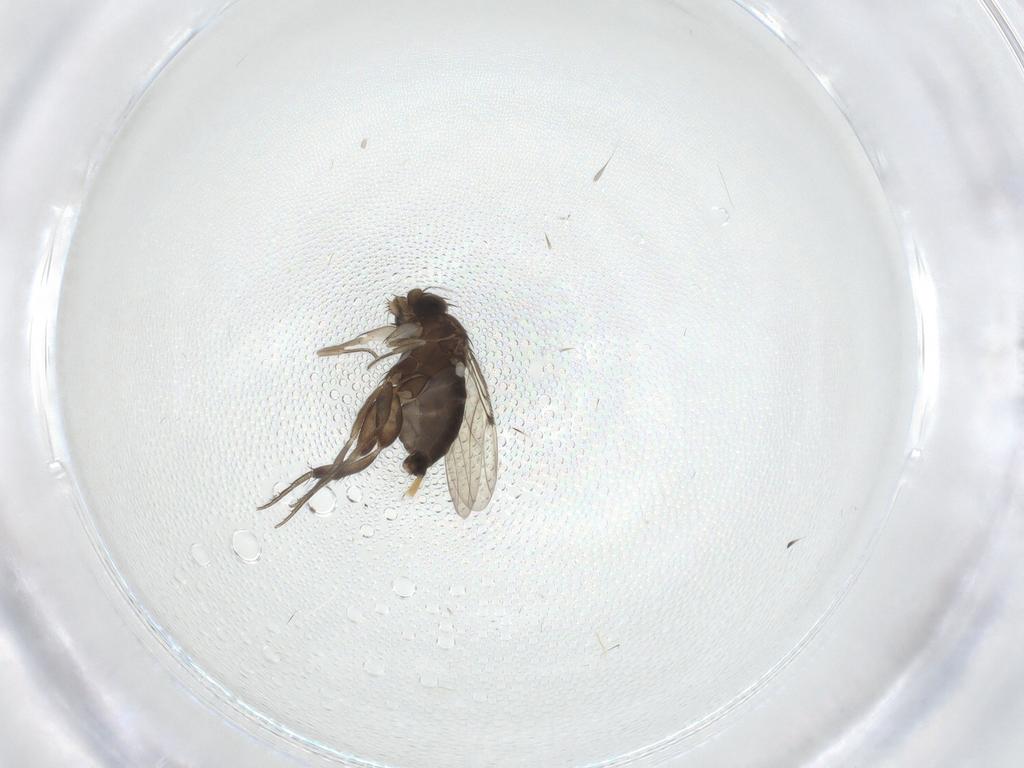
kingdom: Animalia
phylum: Arthropoda
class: Insecta
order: Diptera
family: Phoridae
